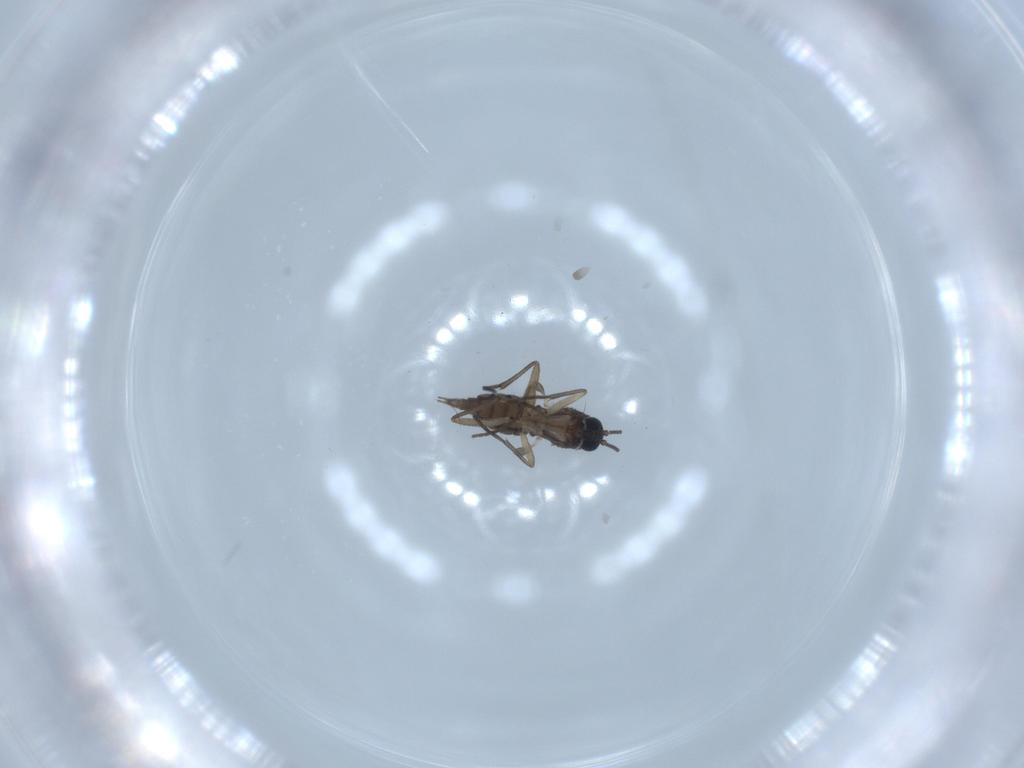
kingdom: Animalia
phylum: Arthropoda
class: Insecta
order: Diptera
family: Sciaridae
